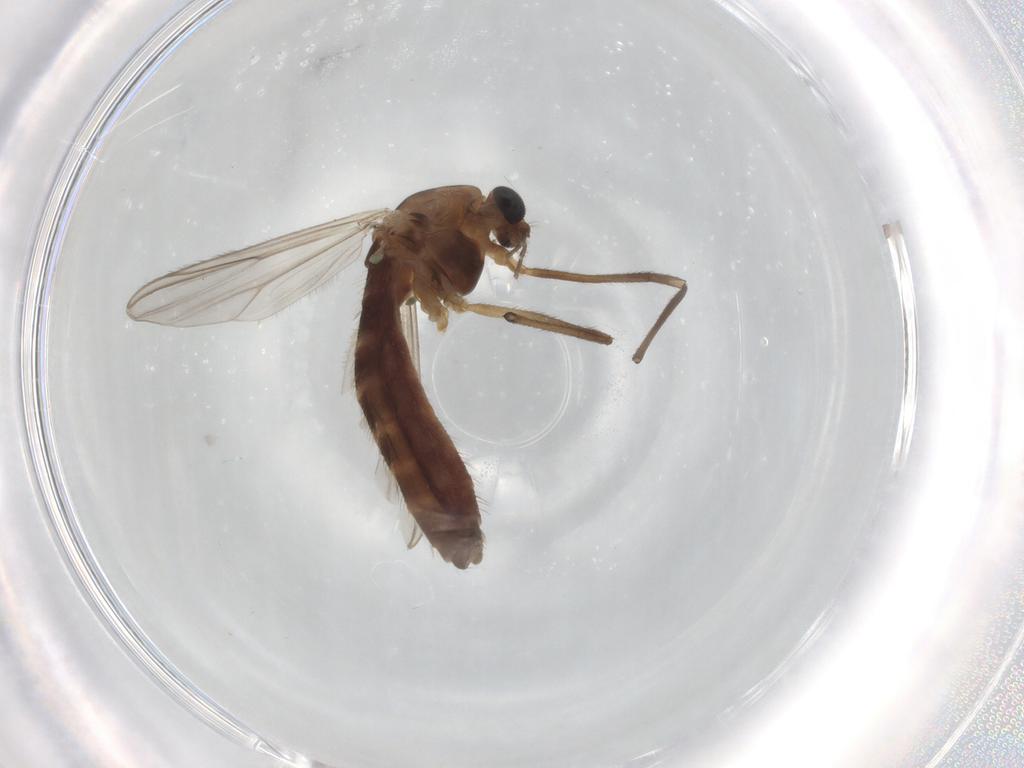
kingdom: Animalia
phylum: Arthropoda
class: Insecta
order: Diptera
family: Chironomidae
